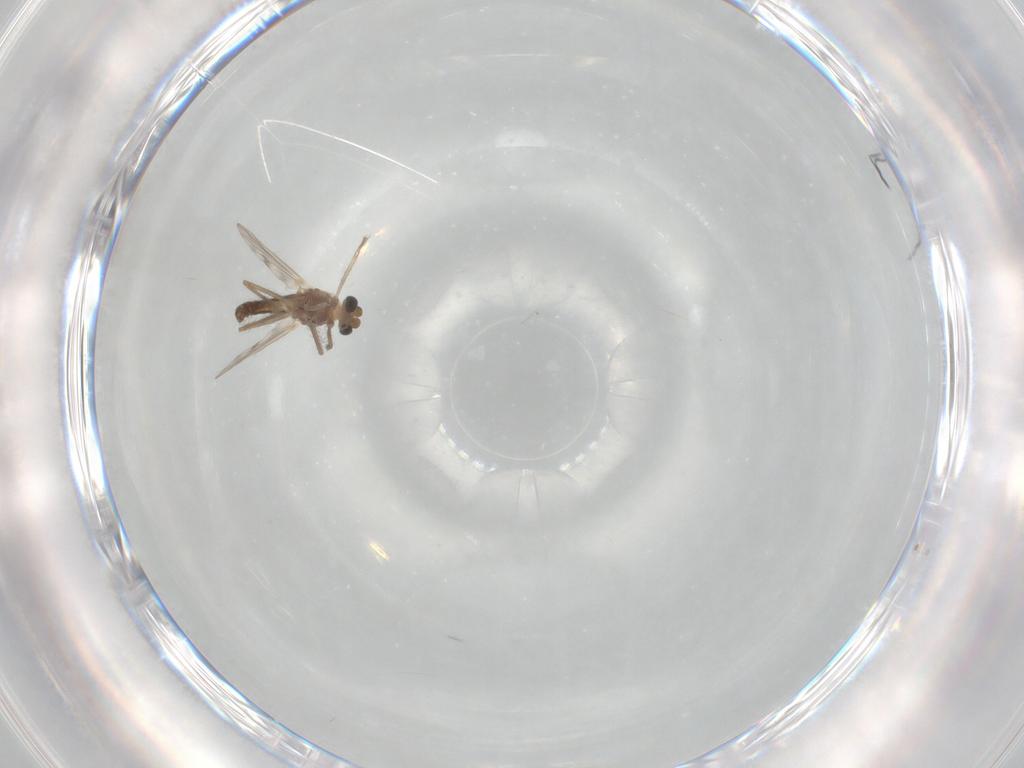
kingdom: Animalia
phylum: Arthropoda
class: Insecta
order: Diptera
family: Chironomidae
